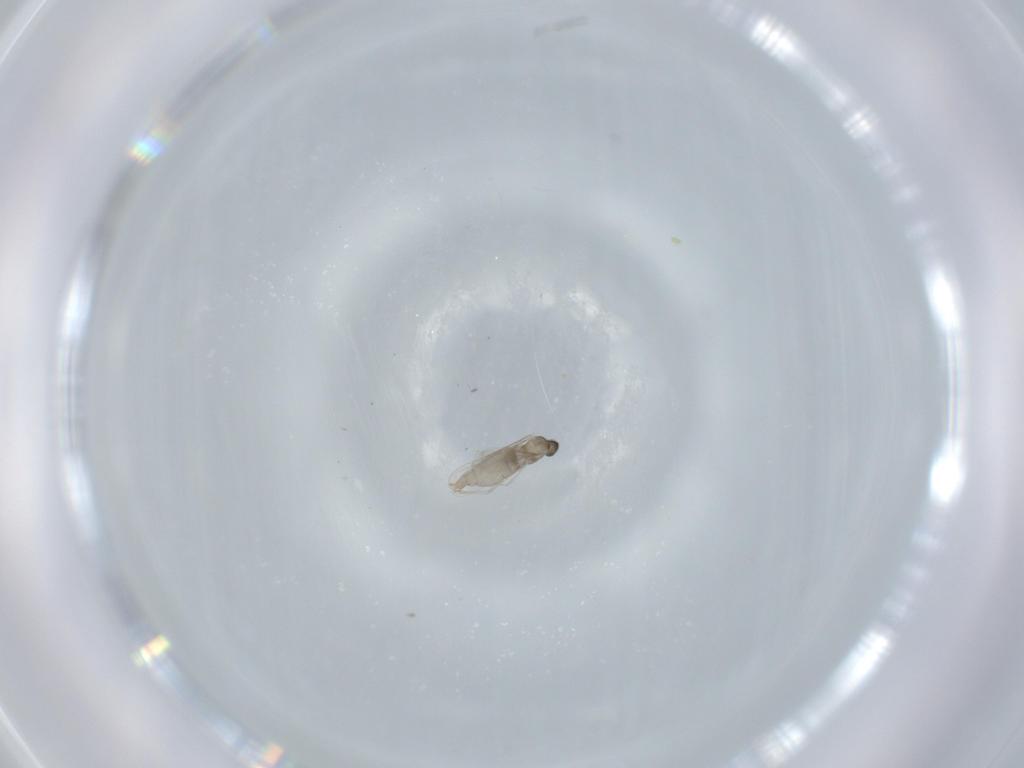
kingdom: Animalia
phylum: Arthropoda
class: Insecta
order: Diptera
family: Cecidomyiidae
